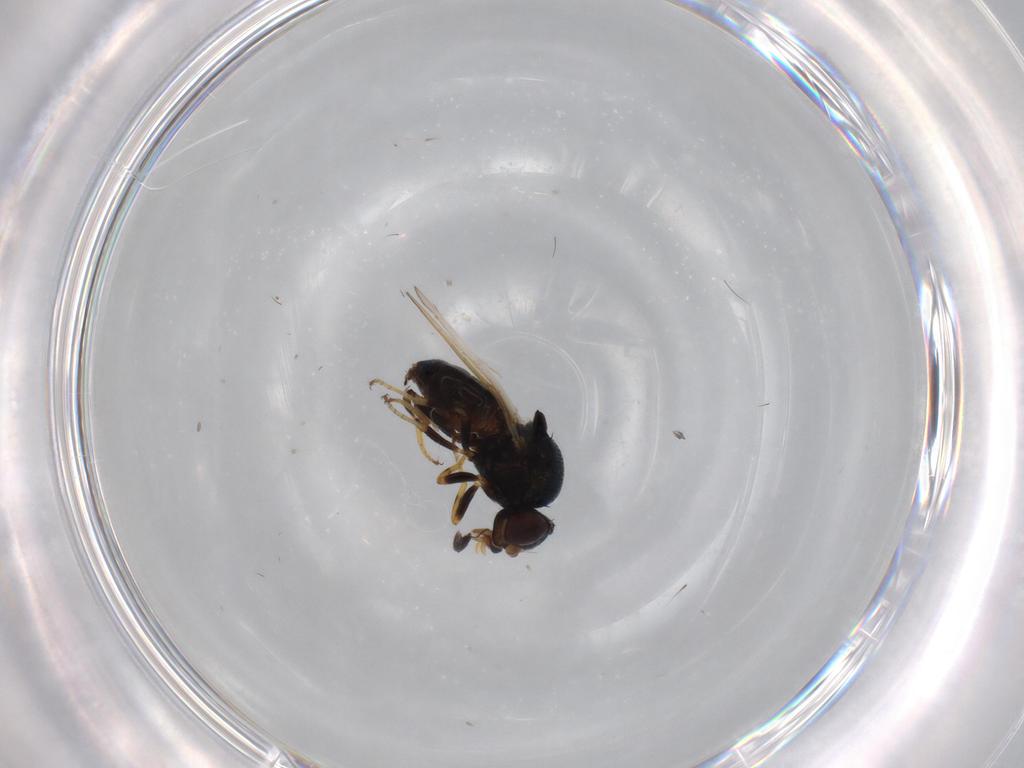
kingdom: Animalia
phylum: Arthropoda
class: Insecta
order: Diptera
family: Chloropidae
